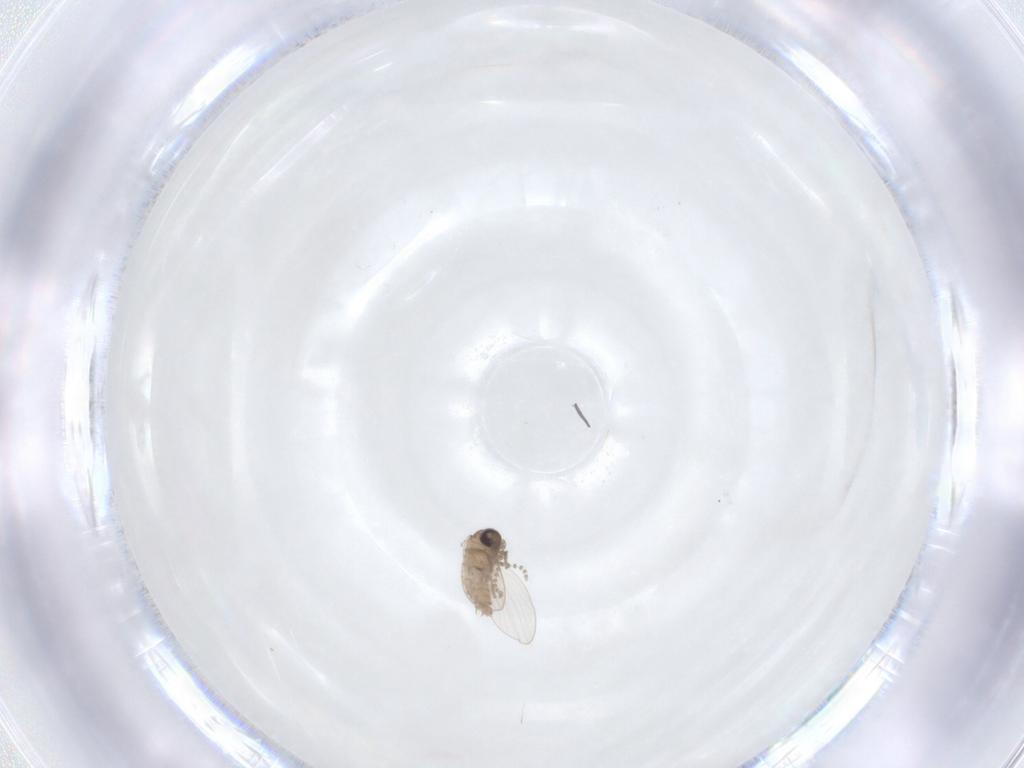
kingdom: Animalia
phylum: Arthropoda
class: Insecta
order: Diptera
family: Psychodidae
